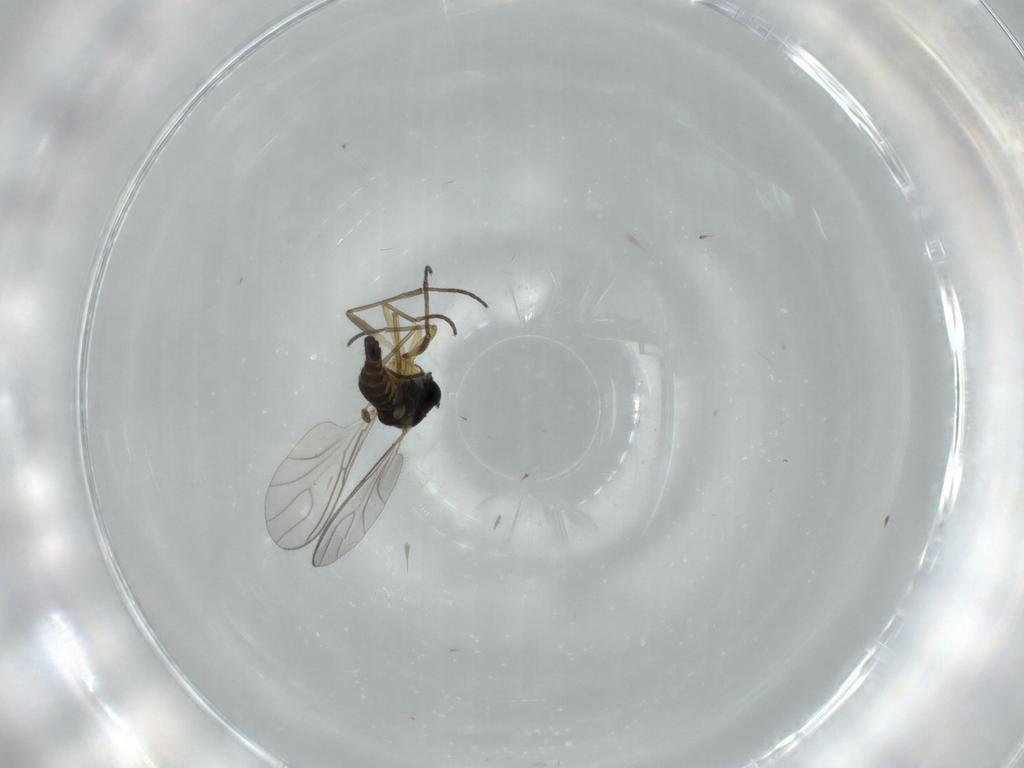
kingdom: Animalia
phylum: Arthropoda
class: Insecta
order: Diptera
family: Sciaridae
